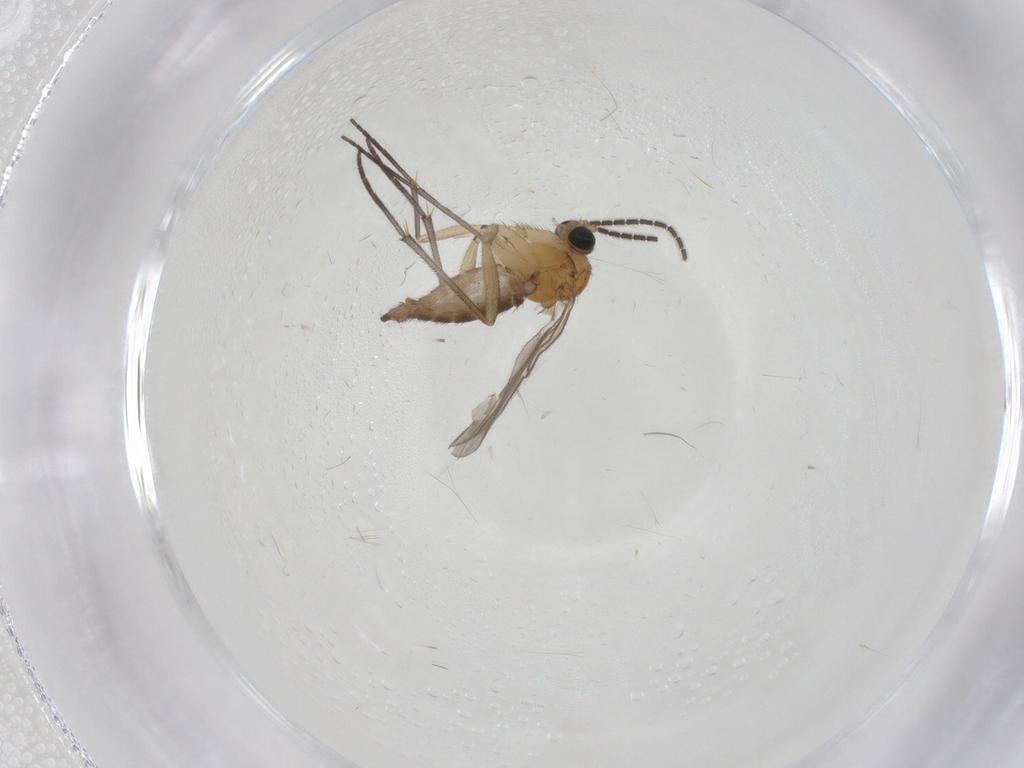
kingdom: Animalia
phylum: Arthropoda
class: Insecta
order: Diptera
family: Sciaridae
